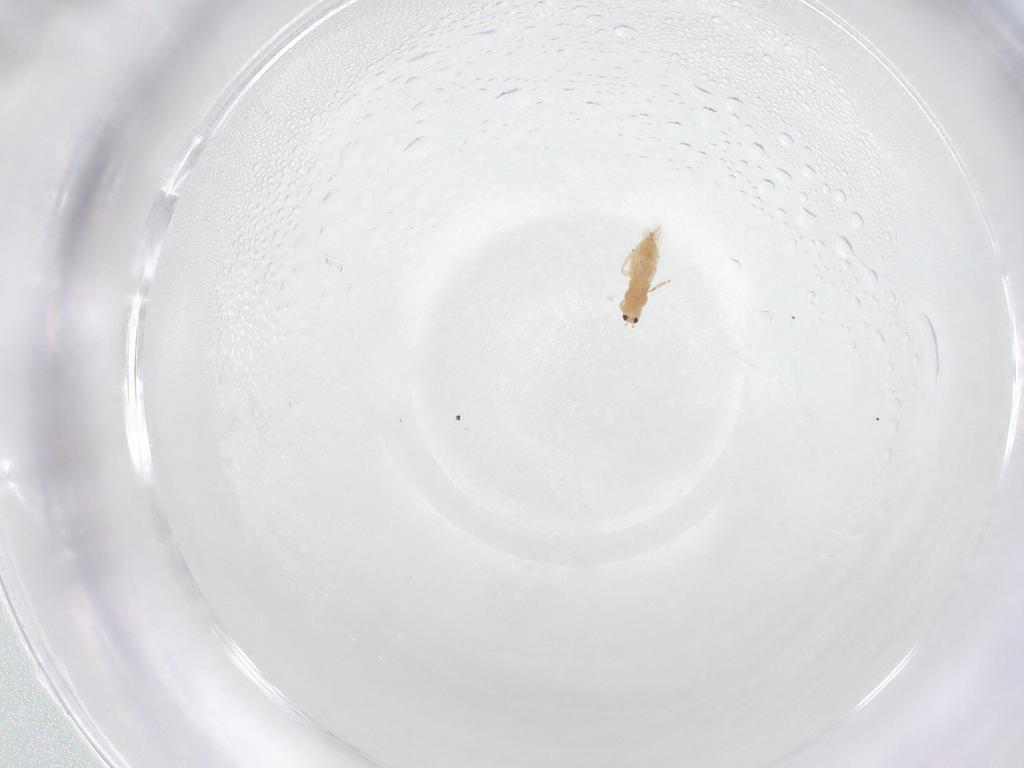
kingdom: Animalia
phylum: Arthropoda
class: Insecta
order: Thysanoptera
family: Thripidae
